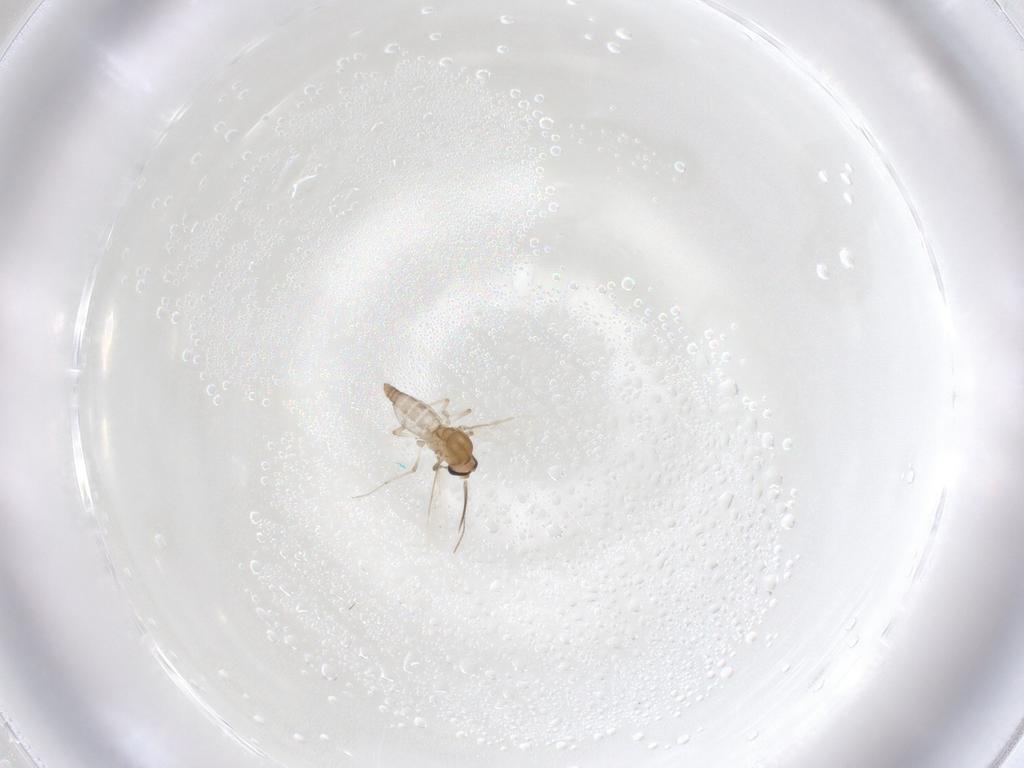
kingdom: Animalia
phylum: Arthropoda
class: Insecta
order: Diptera
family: Ceratopogonidae
